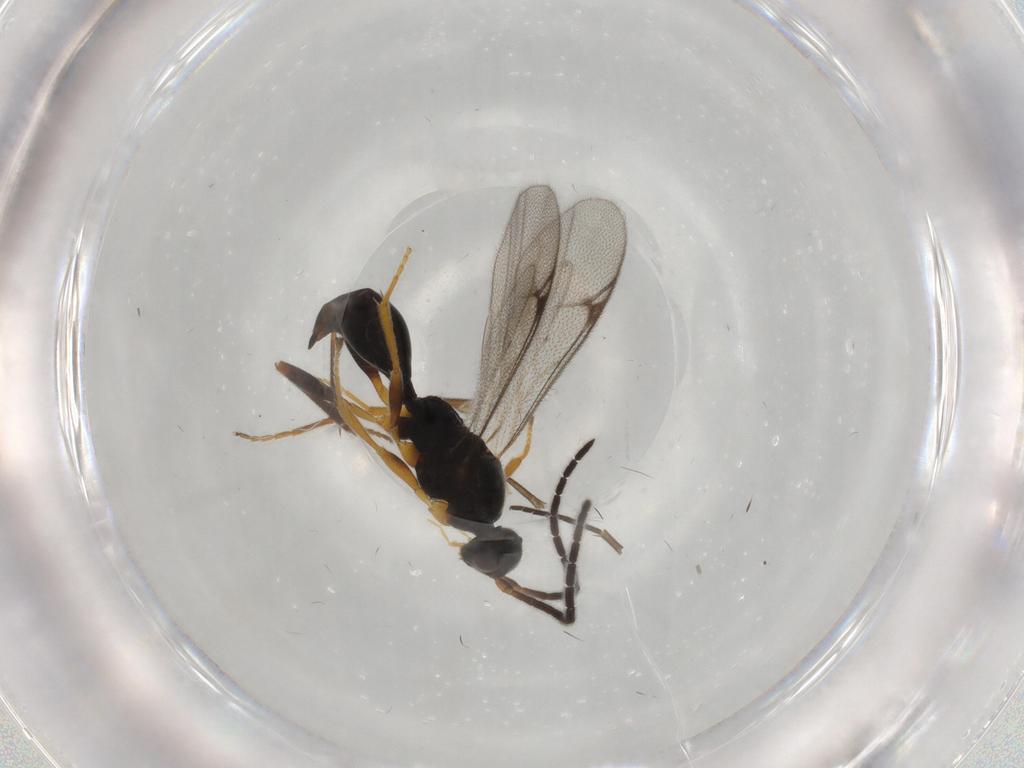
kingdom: Animalia
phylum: Arthropoda
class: Insecta
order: Hymenoptera
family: Proctotrupidae
